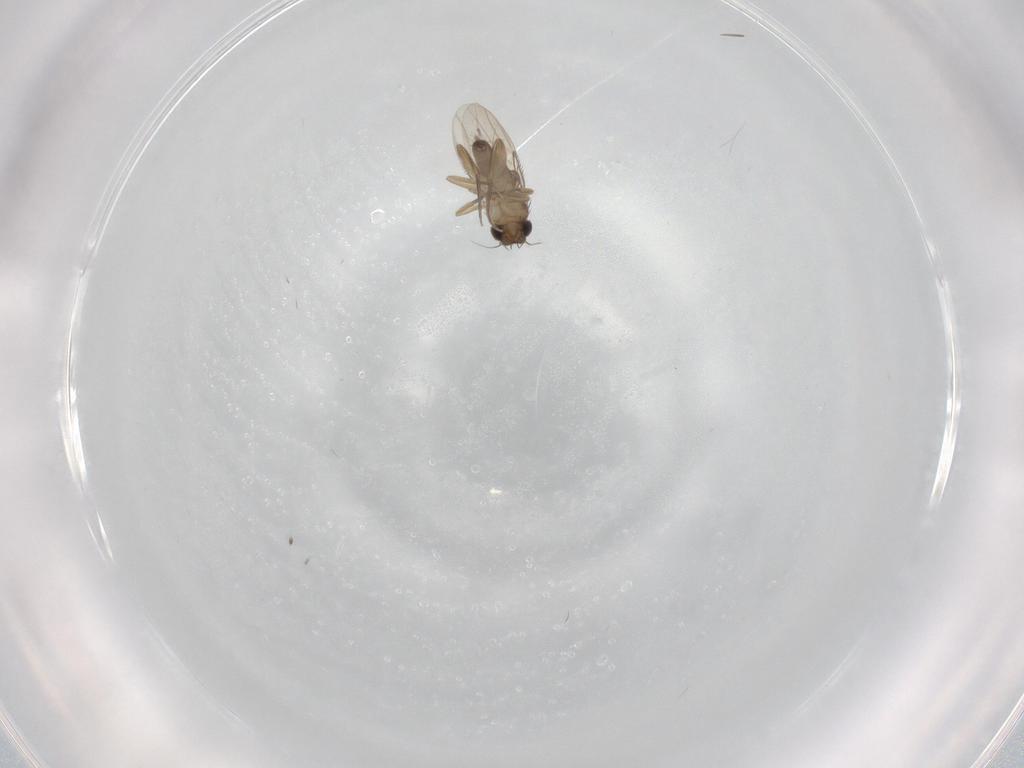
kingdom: Animalia
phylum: Arthropoda
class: Insecta
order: Diptera
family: Phoridae
